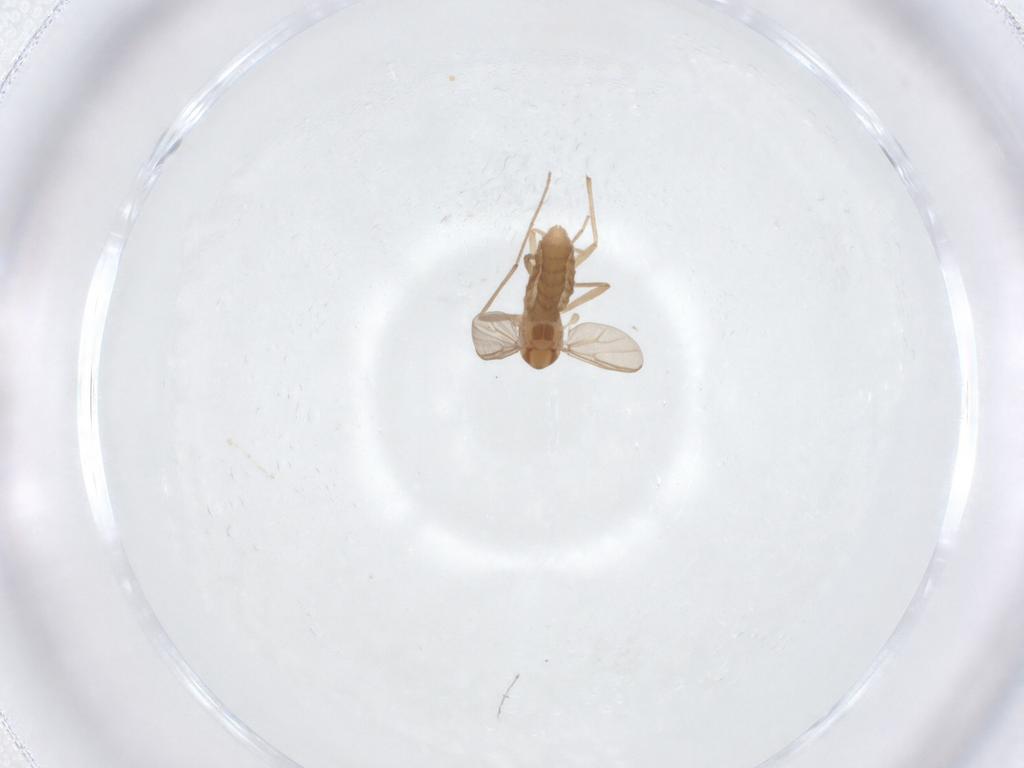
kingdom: Animalia
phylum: Arthropoda
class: Insecta
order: Diptera
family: Chironomidae
